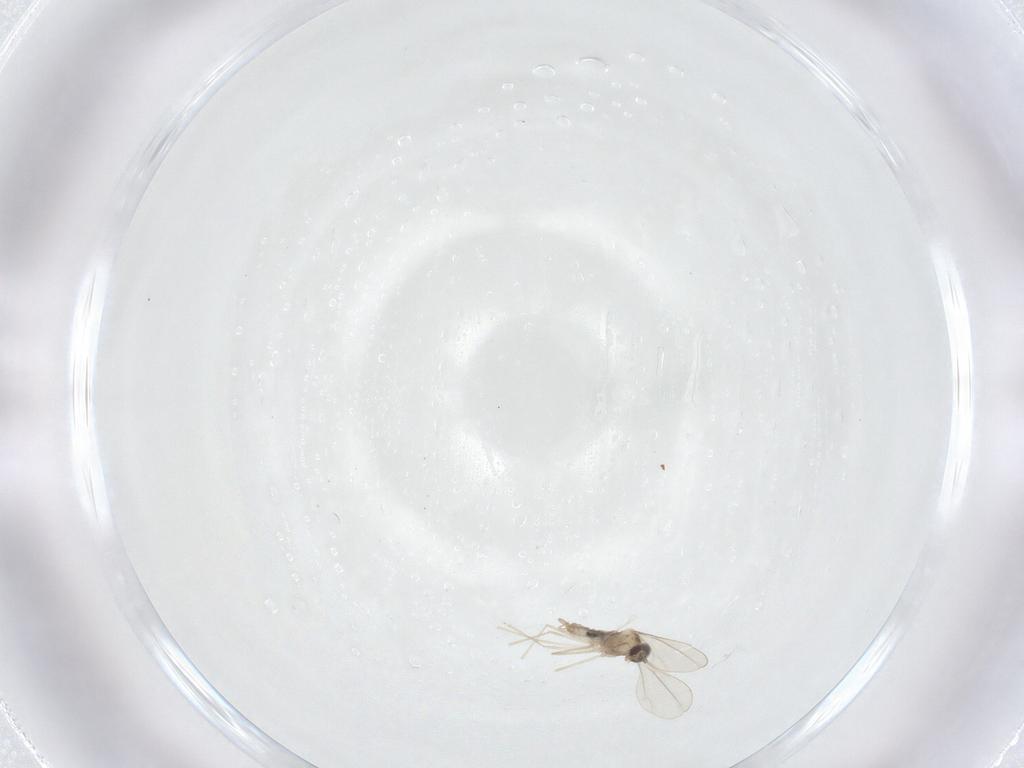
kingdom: Animalia
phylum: Arthropoda
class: Insecta
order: Diptera
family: Cecidomyiidae
